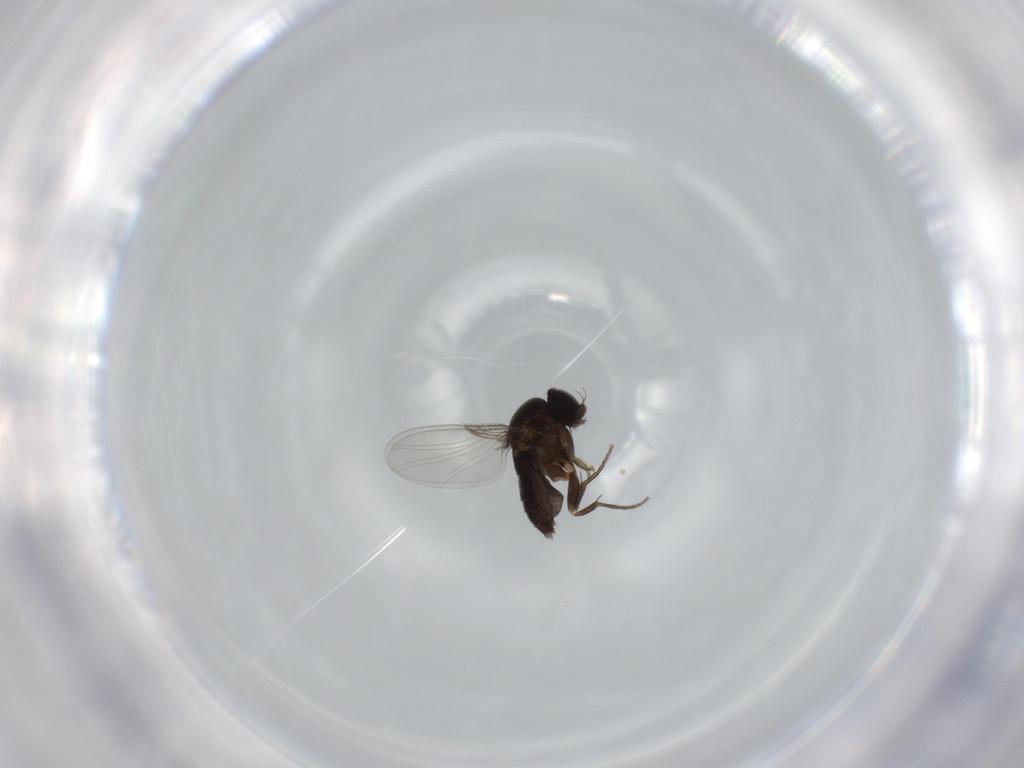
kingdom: Animalia
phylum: Arthropoda
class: Insecta
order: Diptera
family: Phoridae
